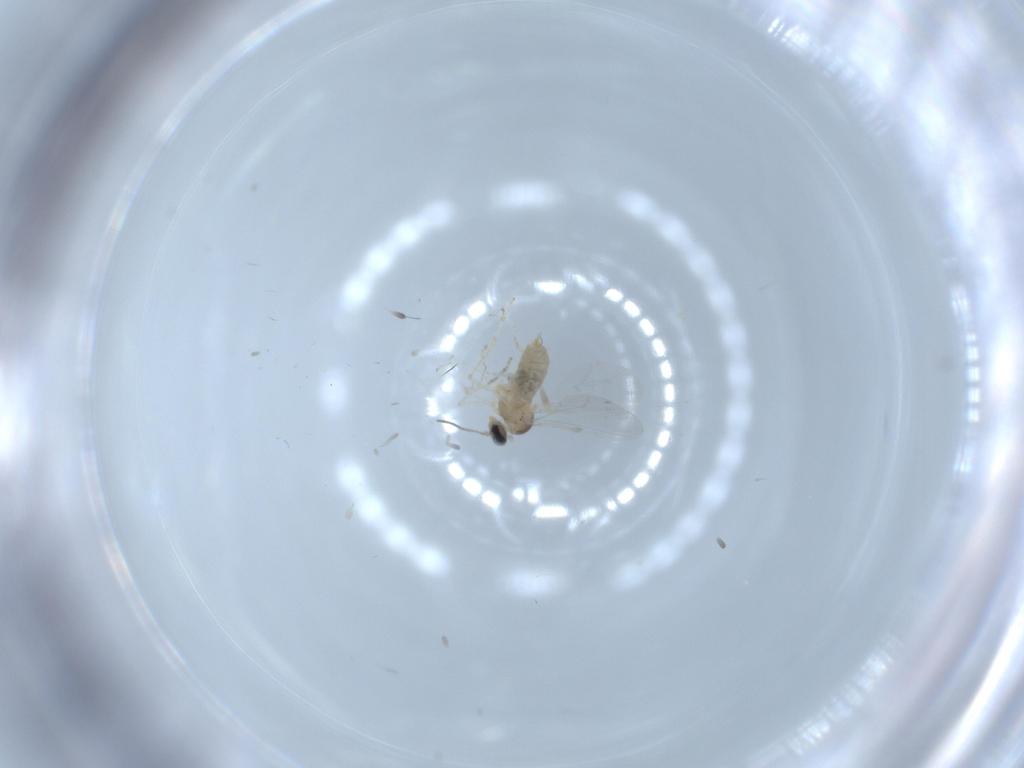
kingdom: Animalia
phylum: Arthropoda
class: Insecta
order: Diptera
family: Cecidomyiidae
